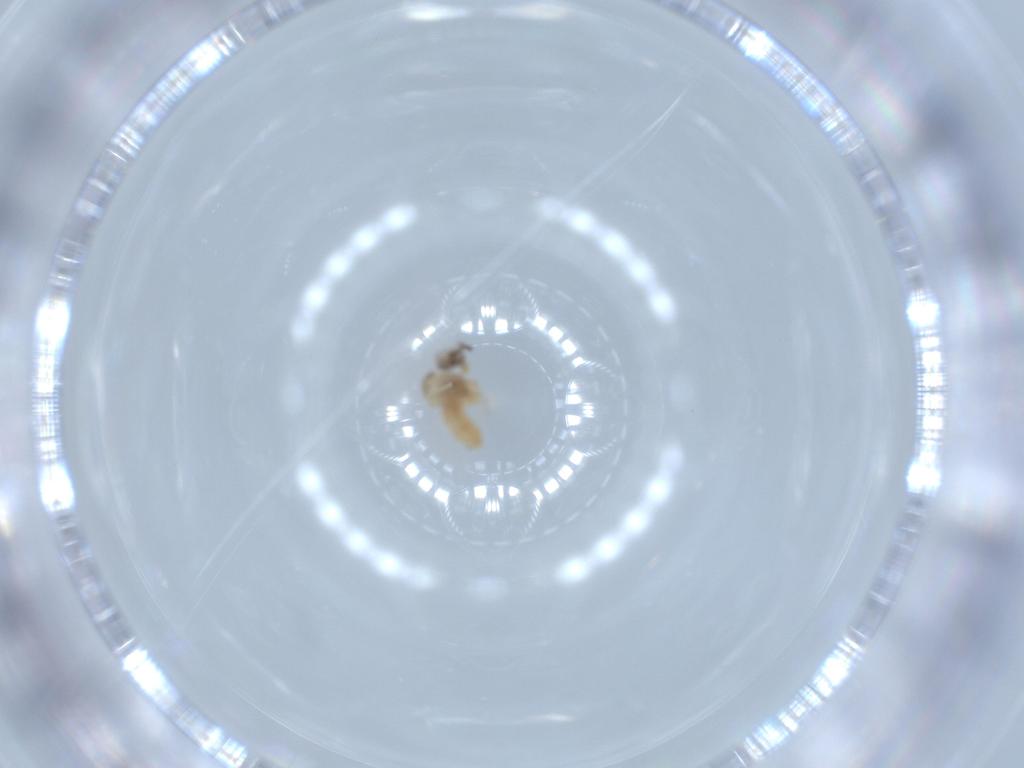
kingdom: Animalia
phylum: Arthropoda
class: Insecta
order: Diptera
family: Cecidomyiidae
